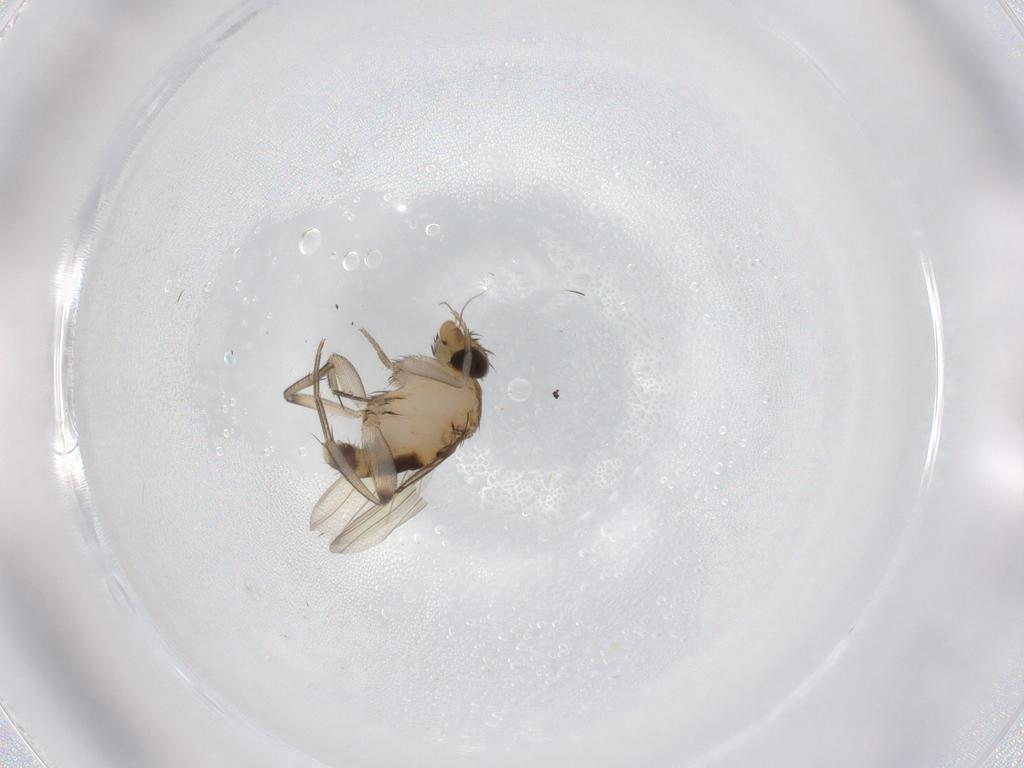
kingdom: Animalia
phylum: Arthropoda
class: Insecta
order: Diptera
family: Phoridae
